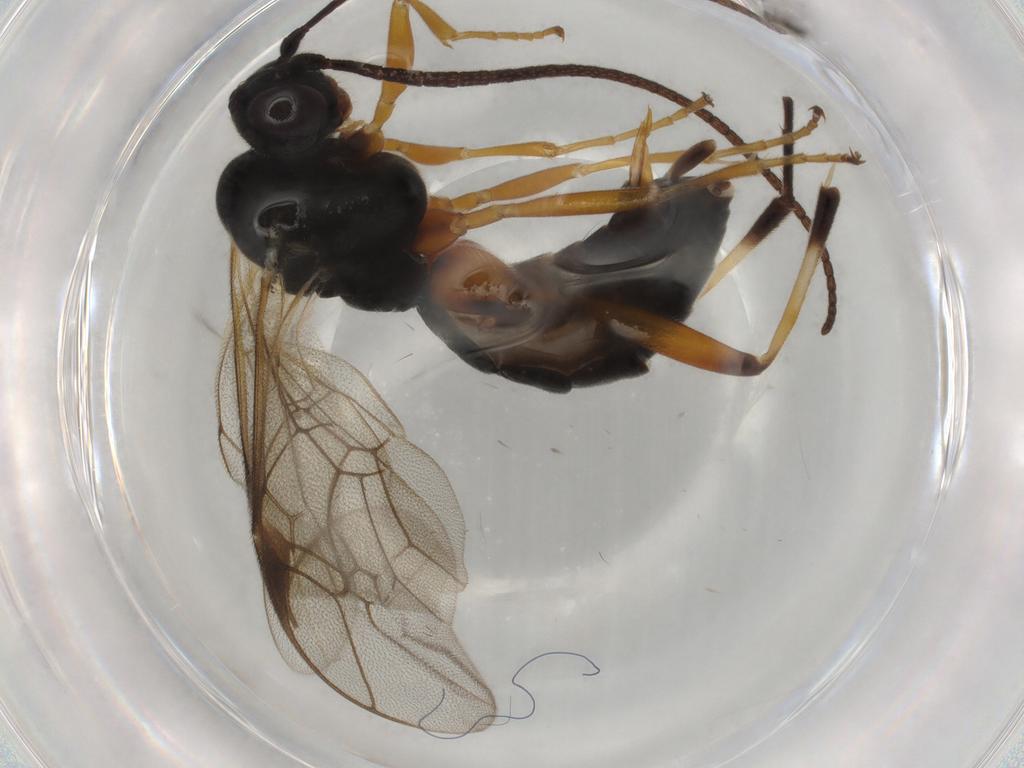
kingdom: Animalia
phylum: Arthropoda
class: Insecta
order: Hymenoptera
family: Ichneumonidae
